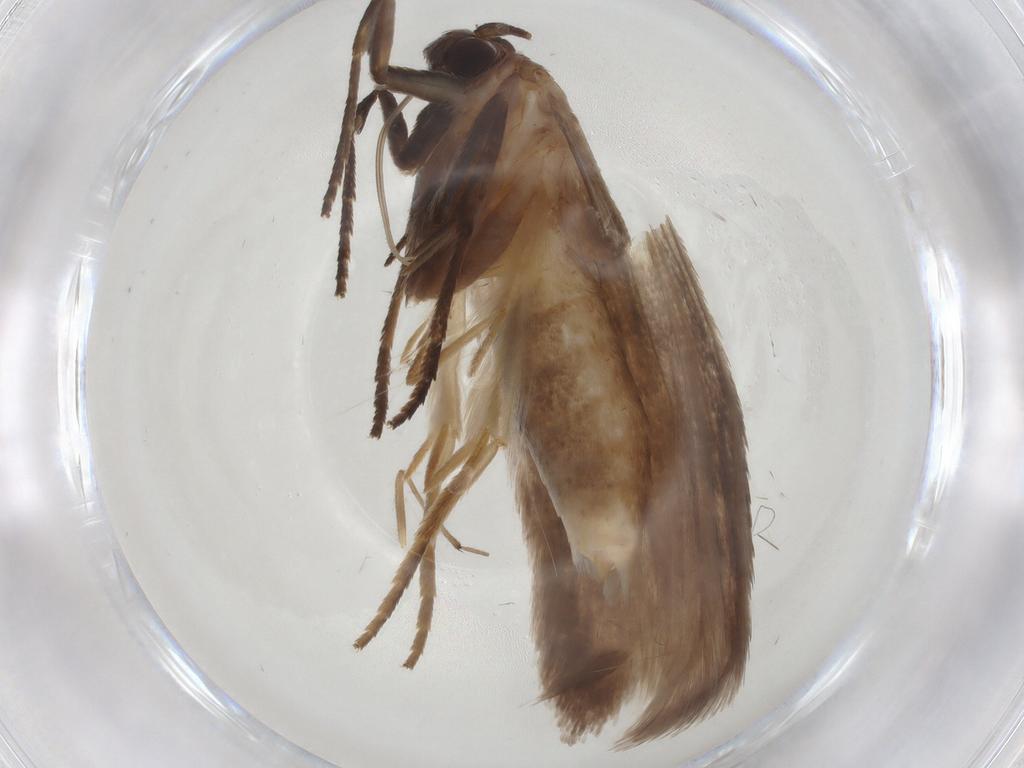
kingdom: Animalia
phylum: Arthropoda
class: Insecta
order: Lepidoptera
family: Roeslerstammiidae
